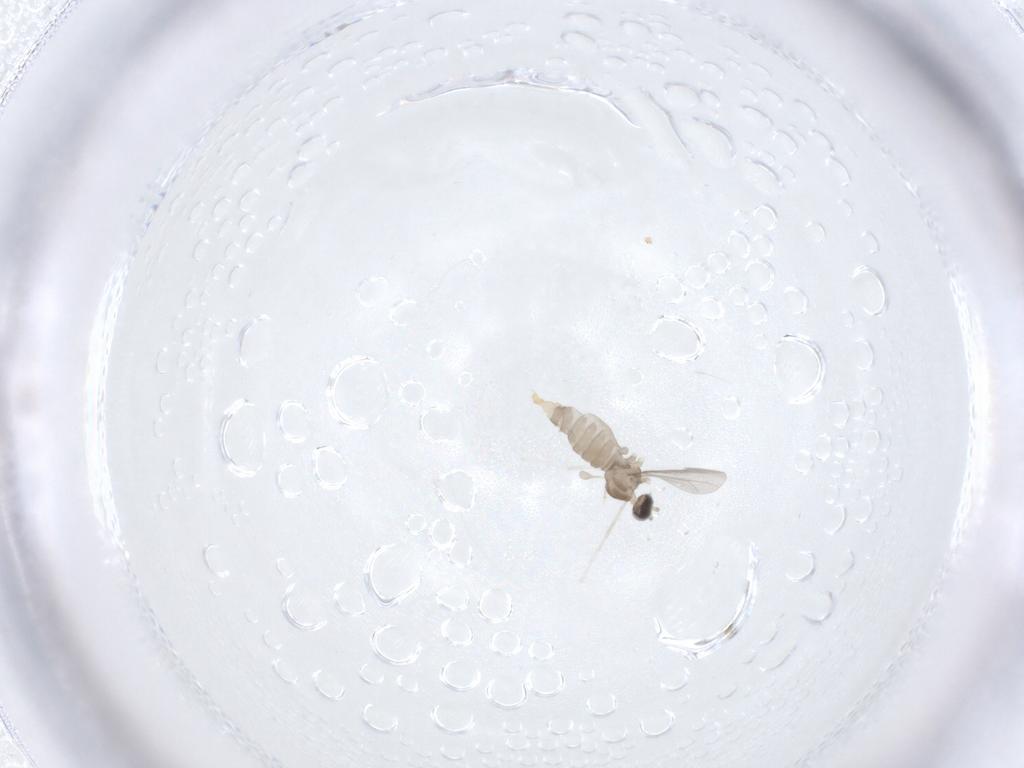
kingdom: Animalia
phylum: Arthropoda
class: Insecta
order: Diptera
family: Cecidomyiidae
